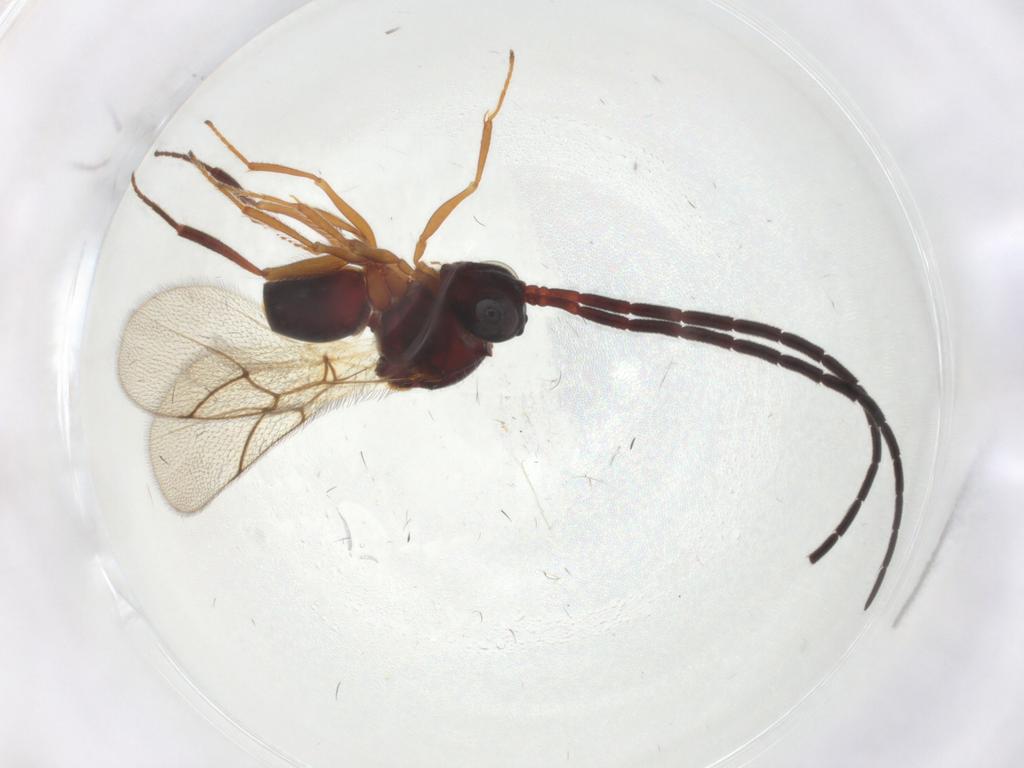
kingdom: Animalia
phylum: Arthropoda
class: Insecta
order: Hymenoptera
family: Figitidae
